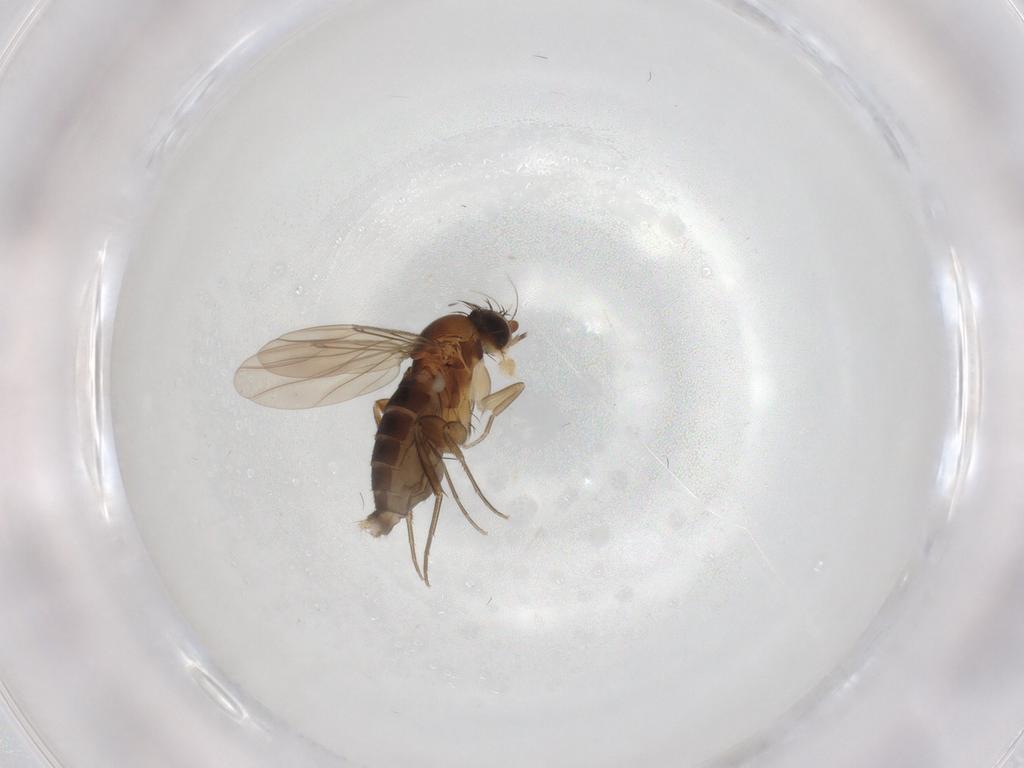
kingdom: Animalia
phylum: Arthropoda
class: Insecta
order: Diptera
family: Phoridae
